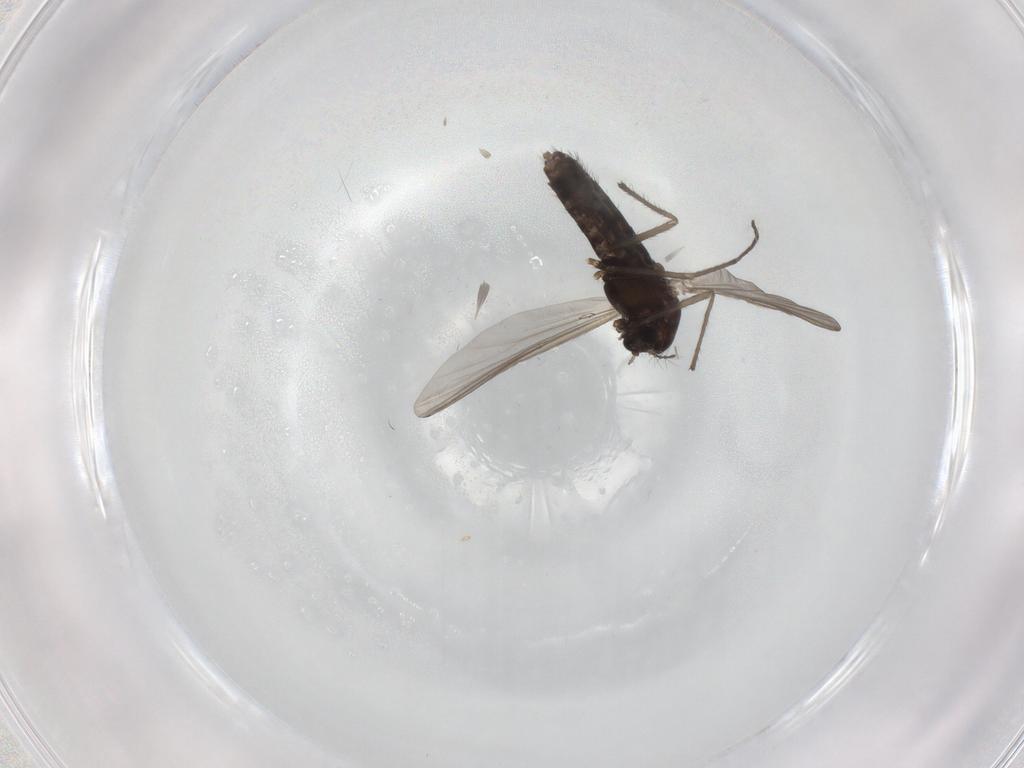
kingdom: Animalia
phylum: Arthropoda
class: Insecta
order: Diptera
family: Chironomidae
